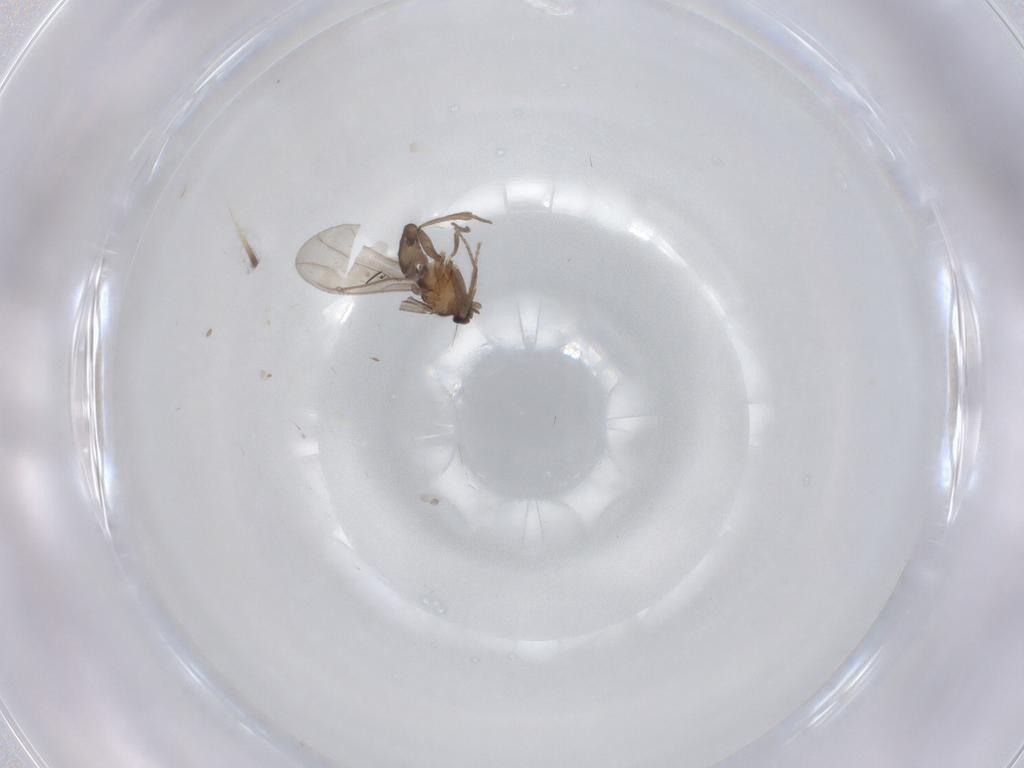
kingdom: Animalia
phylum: Arthropoda
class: Insecta
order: Diptera
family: Phoridae
